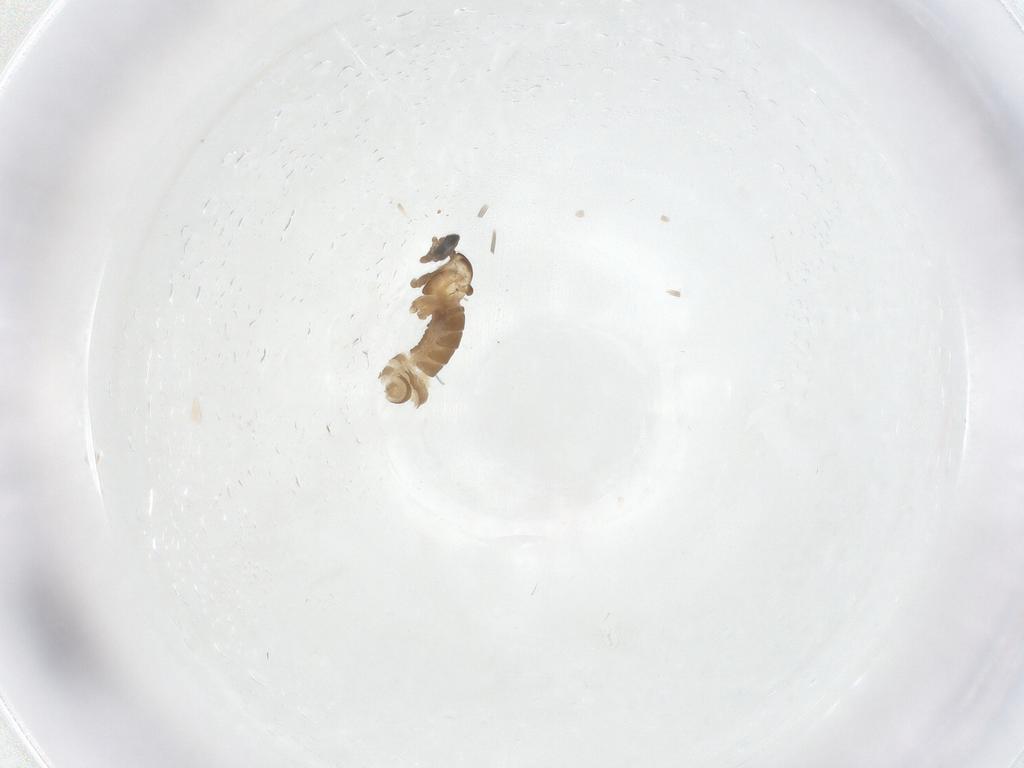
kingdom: Animalia
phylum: Arthropoda
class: Insecta
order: Diptera
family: Cecidomyiidae
